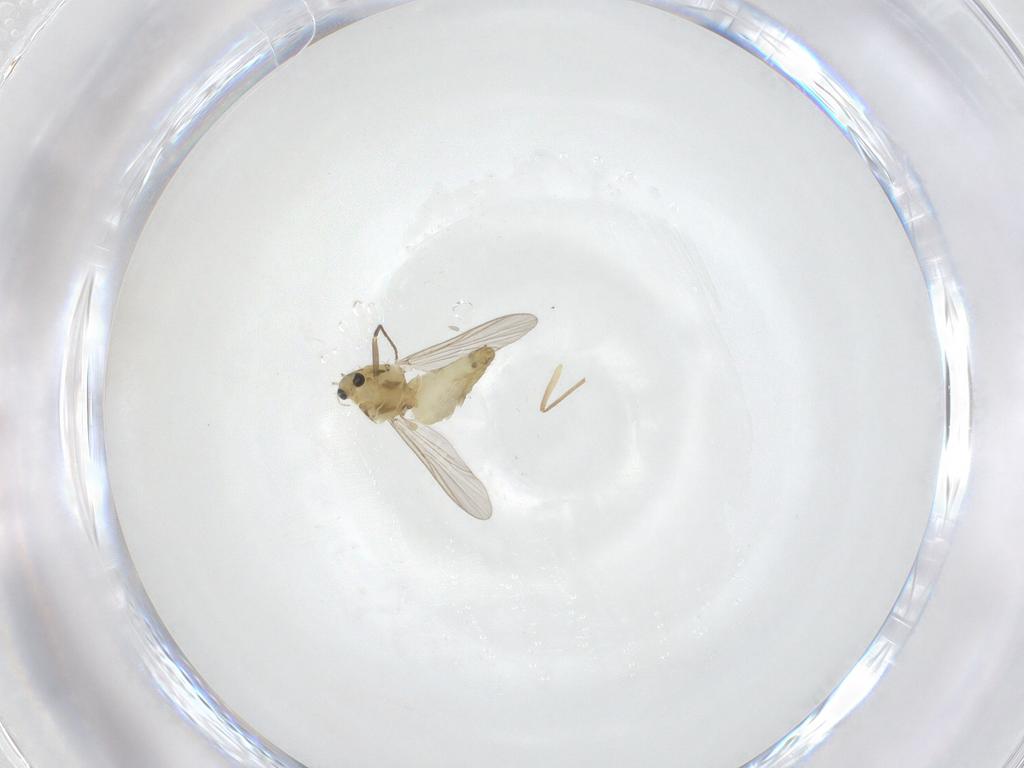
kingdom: Animalia
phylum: Arthropoda
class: Insecta
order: Diptera
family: Chironomidae
